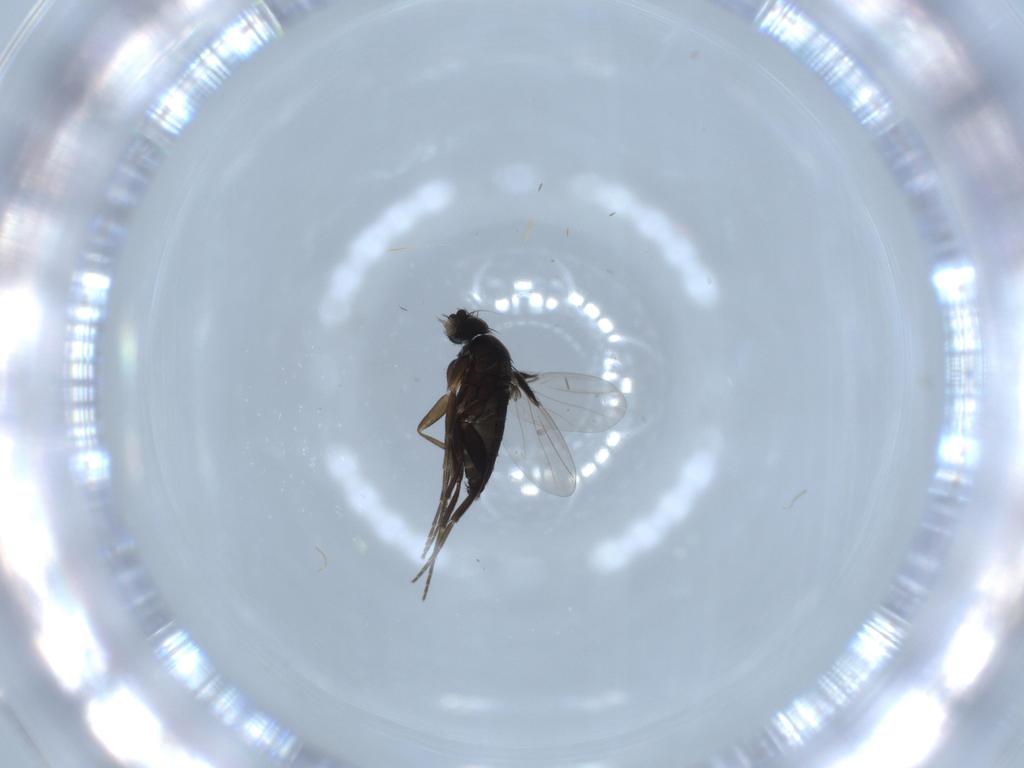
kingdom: Animalia
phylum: Arthropoda
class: Insecta
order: Diptera
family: Phoridae
